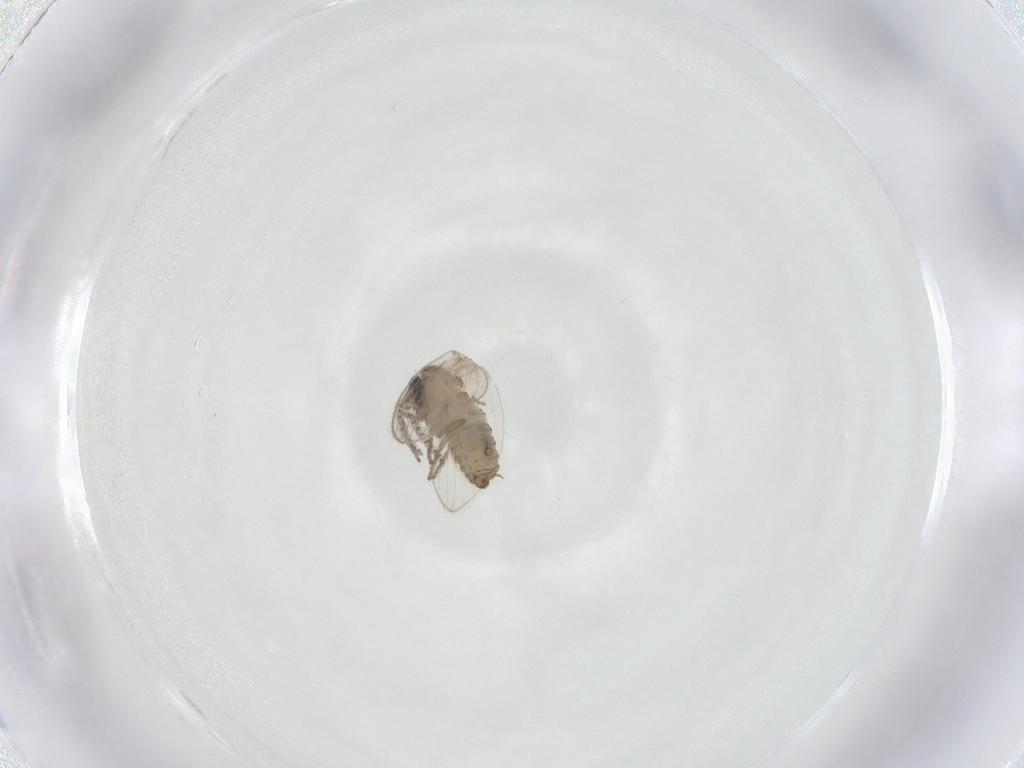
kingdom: Animalia
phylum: Arthropoda
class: Insecta
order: Diptera
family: Psychodidae
